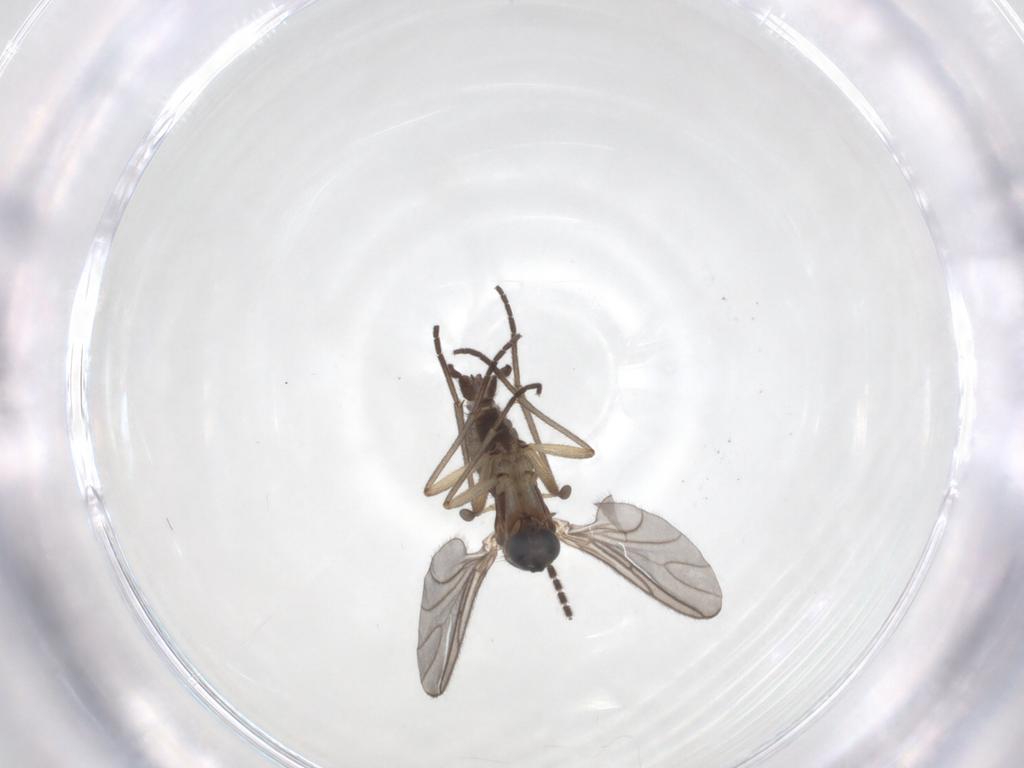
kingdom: Animalia
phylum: Arthropoda
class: Insecta
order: Diptera
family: Sciaridae
